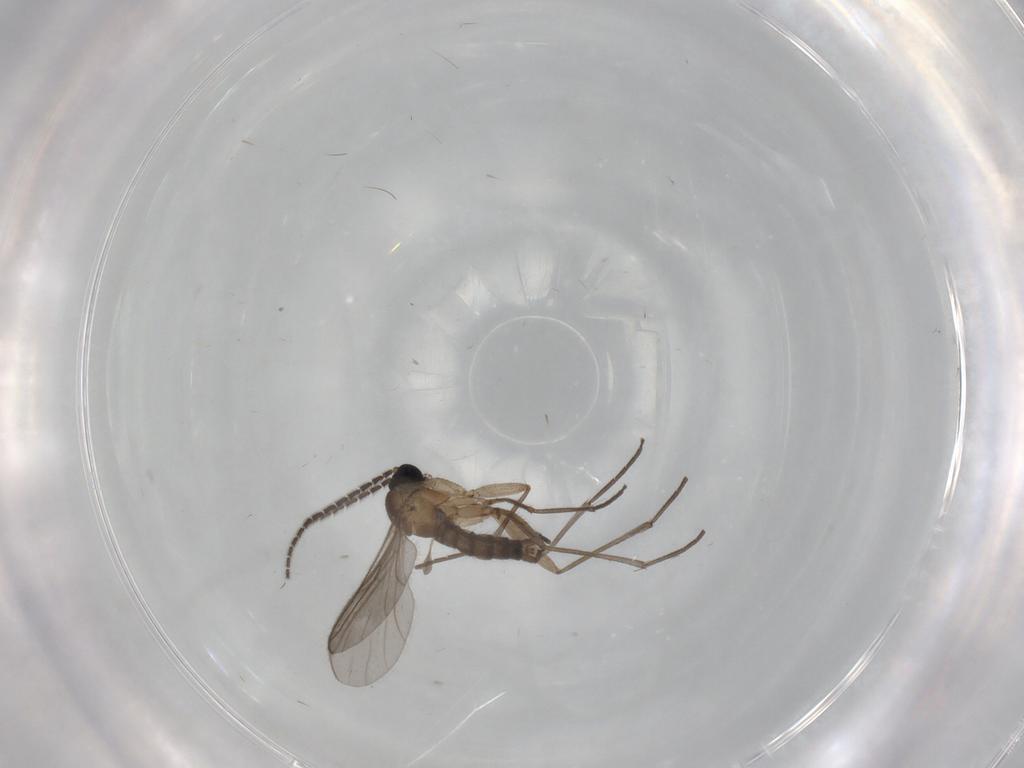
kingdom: Animalia
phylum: Arthropoda
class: Insecta
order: Diptera
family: Sciaridae
